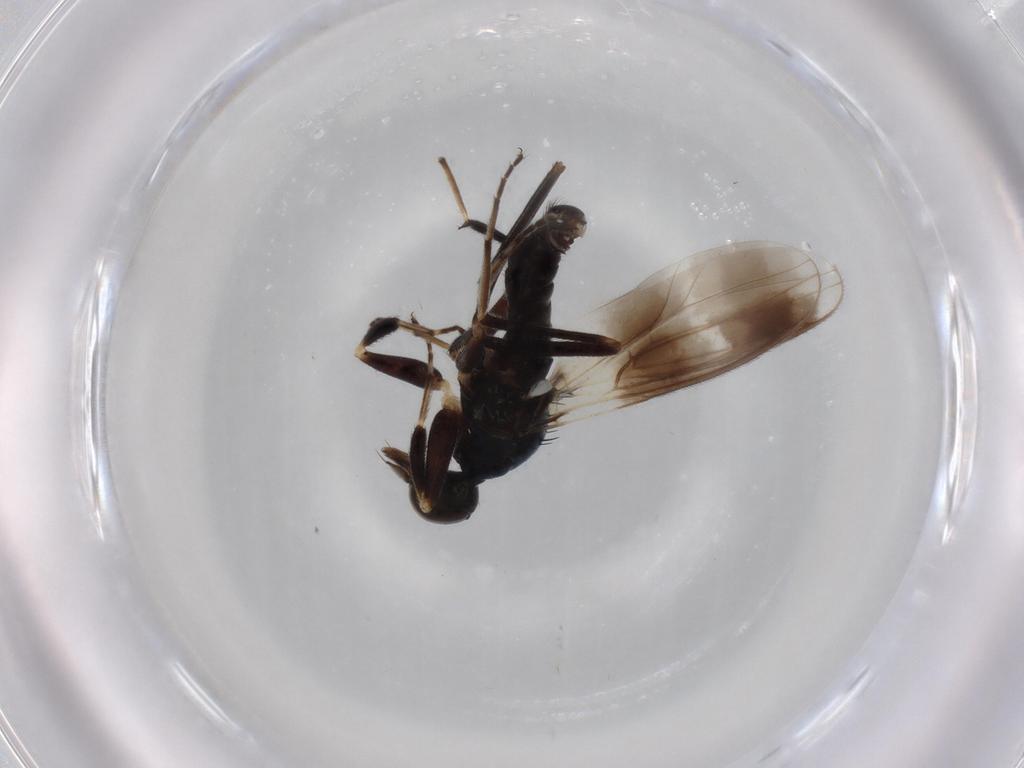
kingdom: Animalia
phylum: Arthropoda
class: Insecta
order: Diptera
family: Hybotidae
